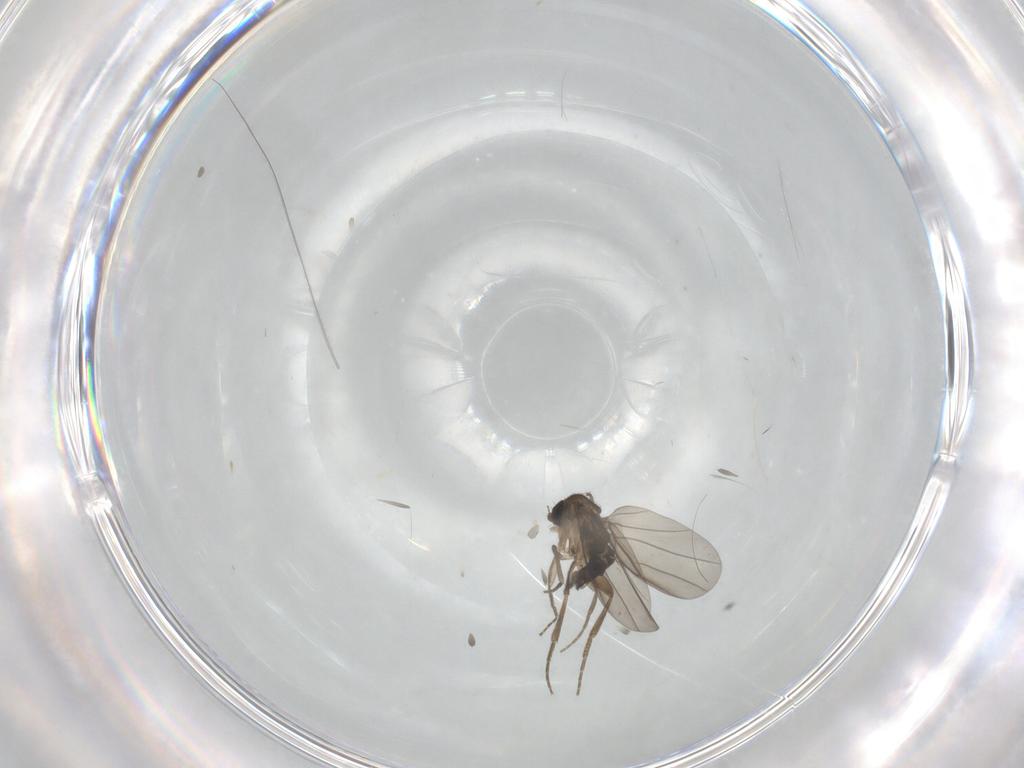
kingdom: Animalia
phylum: Arthropoda
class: Insecta
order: Diptera
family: Phoridae
